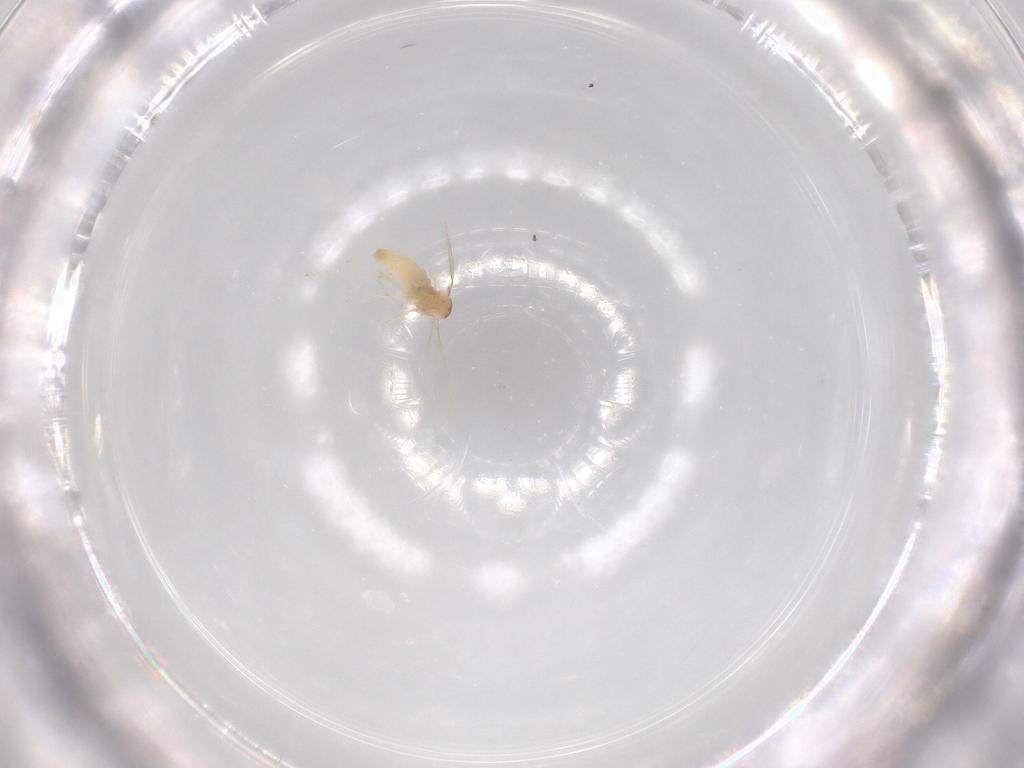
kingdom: Animalia
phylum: Arthropoda
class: Insecta
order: Diptera
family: Cecidomyiidae
